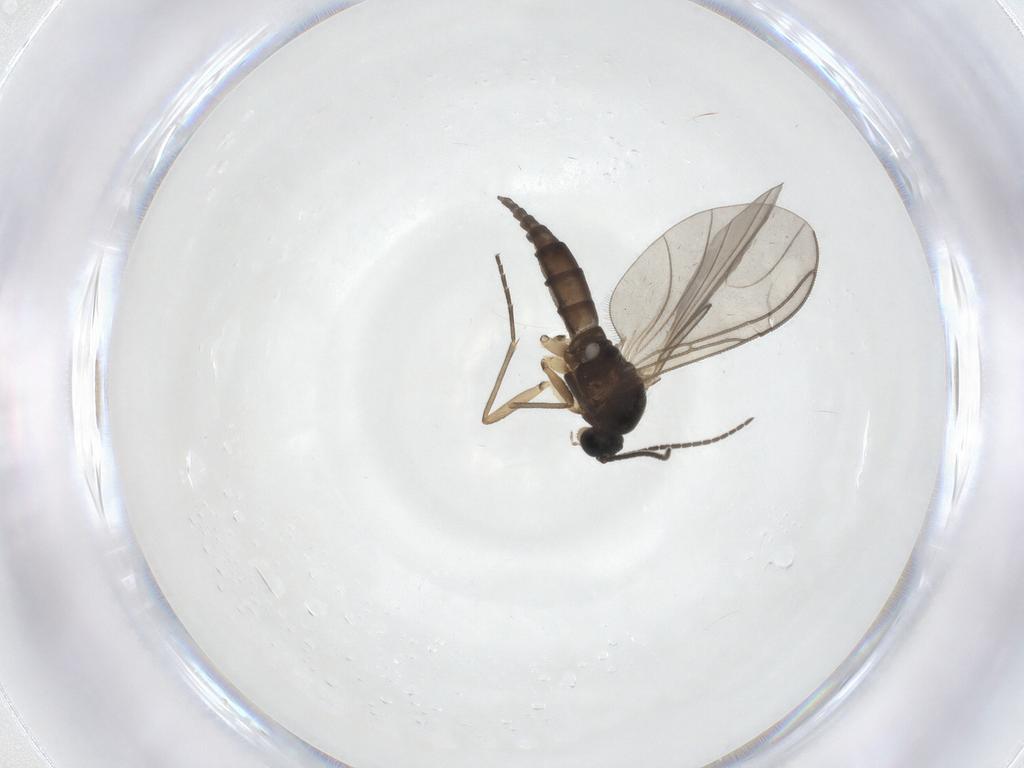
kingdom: Animalia
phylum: Arthropoda
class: Insecta
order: Diptera
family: Sciaridae
